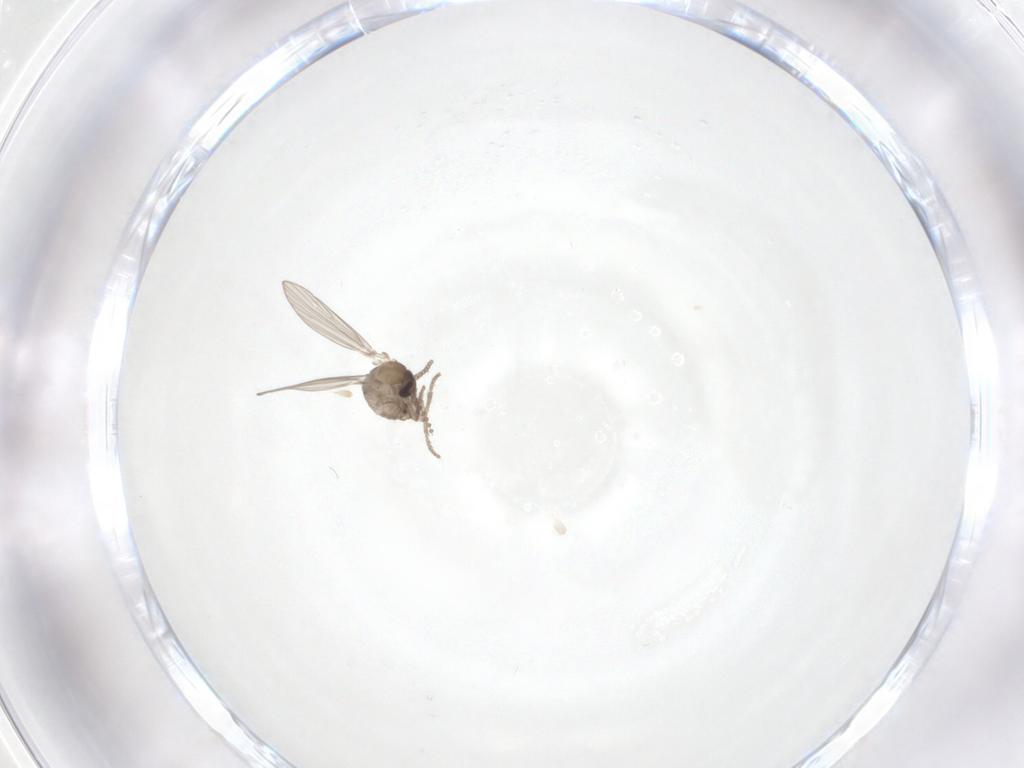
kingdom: Animalia
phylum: Arthropoda
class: Insecta
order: Diptera
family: Psychodidae
